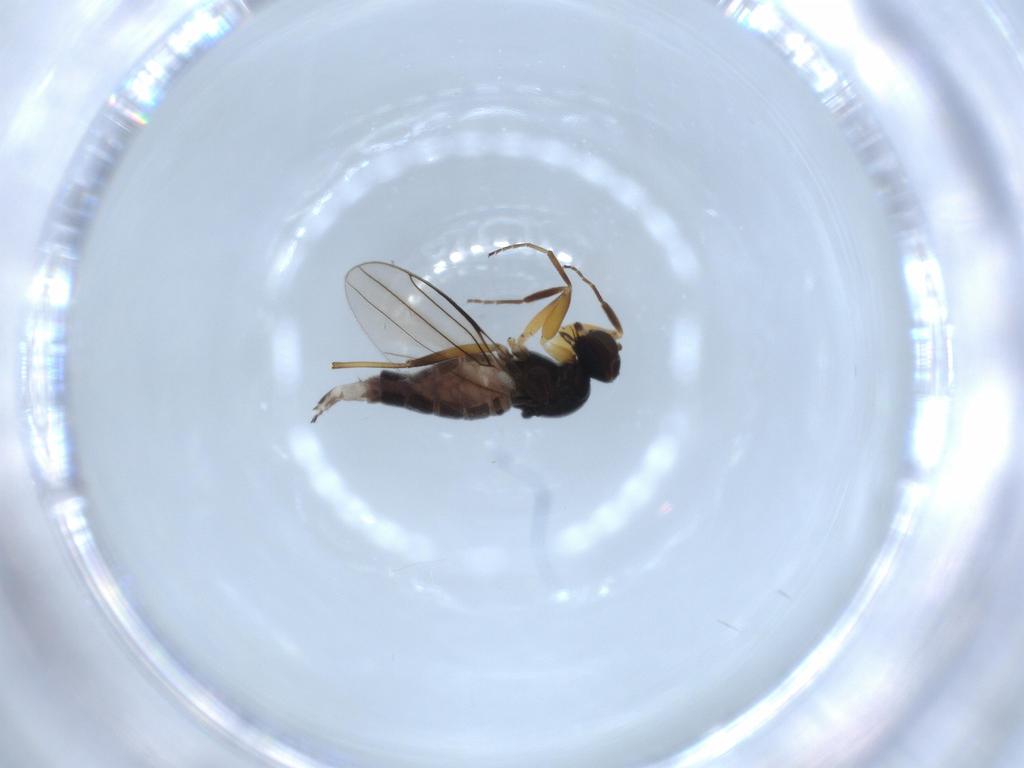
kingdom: Animalia
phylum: Arthropoda
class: Insecta
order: Diptera
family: Hybotidae
